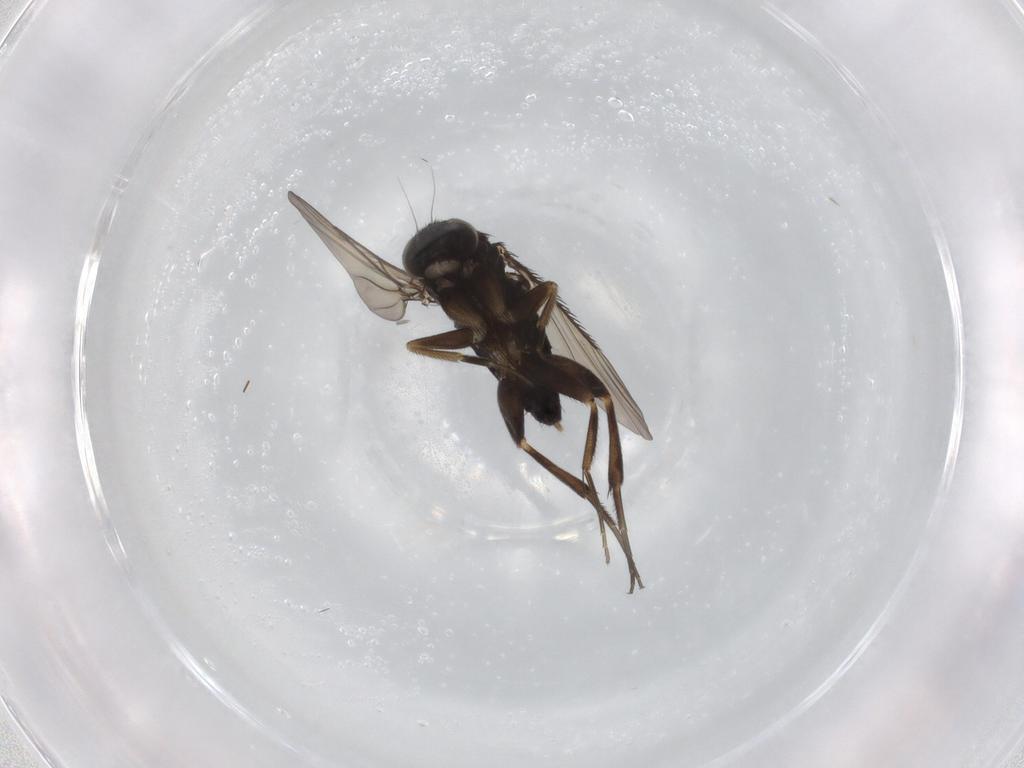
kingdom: Animalia
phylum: Arthropoda
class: Insecta
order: Diptera
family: Phoridae
